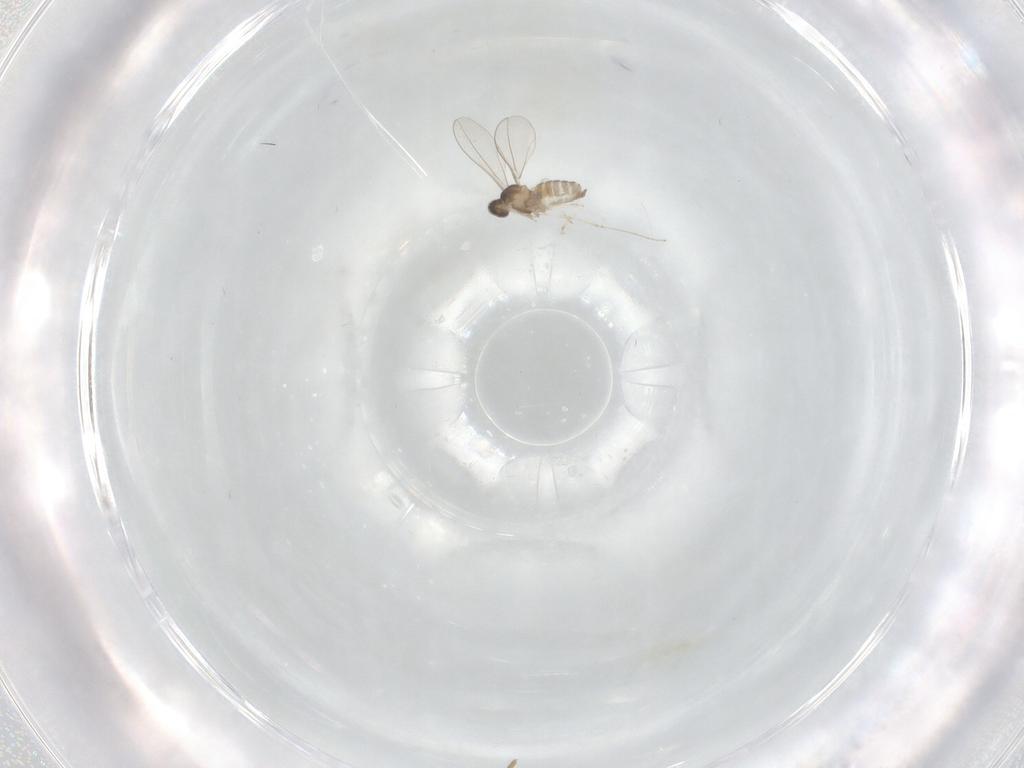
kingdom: Animalia
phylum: Arthropoda
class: Insecta
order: Diptera
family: Cecidomyiidae
